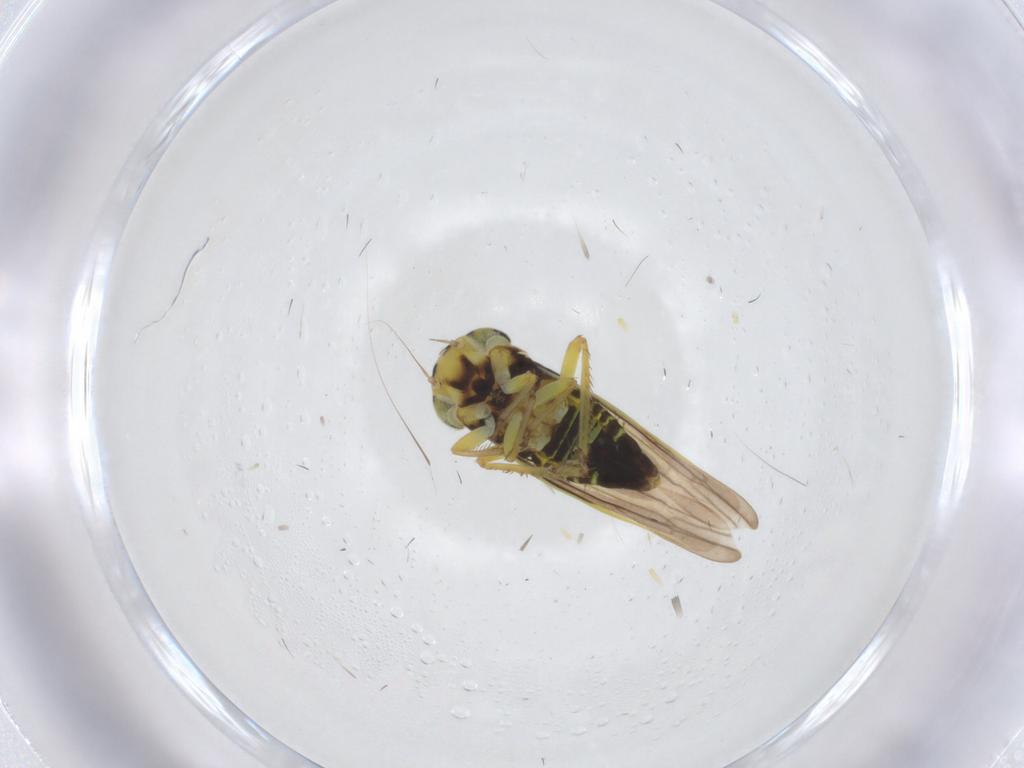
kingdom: Animalia
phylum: Arthropoda
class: Insecta
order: Hemiptera
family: Cicadellidae
